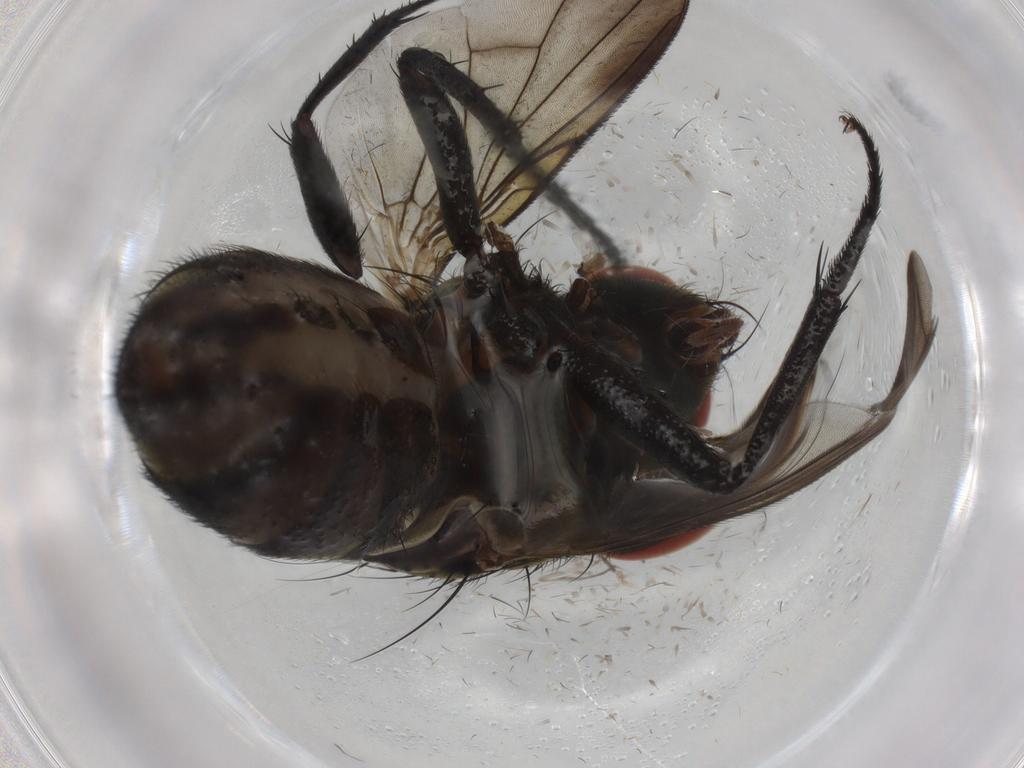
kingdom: Animalia
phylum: Arthropoda
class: Insecta
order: Diptera
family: Sarcophagidae
